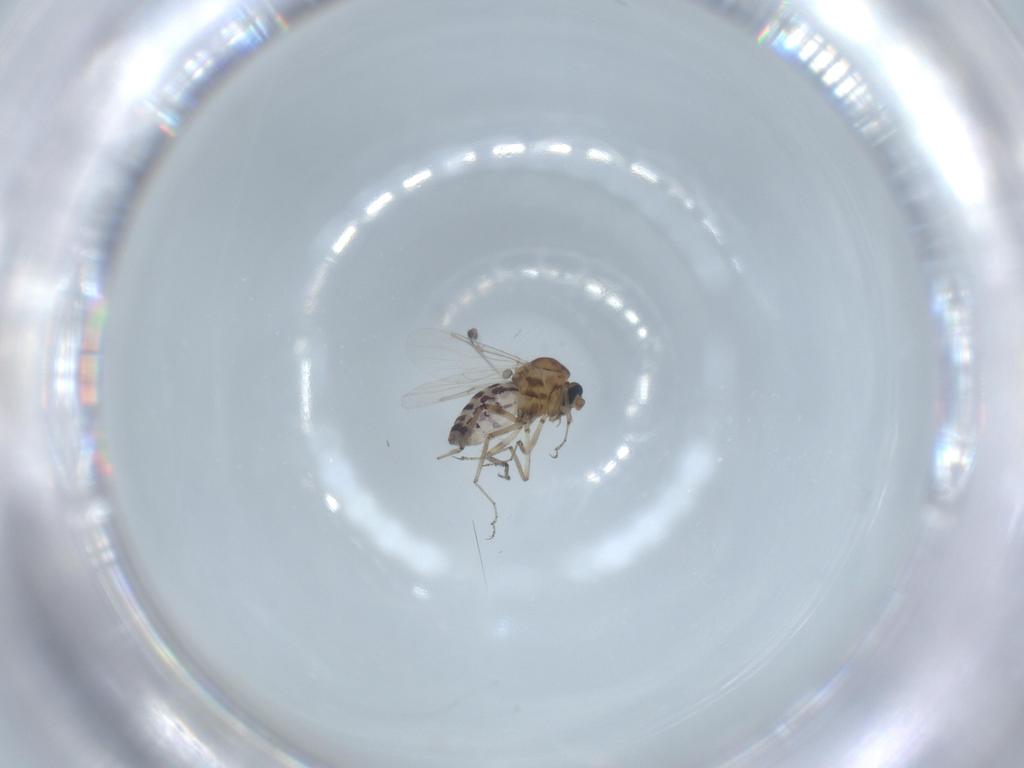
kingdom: Animalia
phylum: Arthropoda
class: Insecta
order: Diptera
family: Ceratopogonidae
